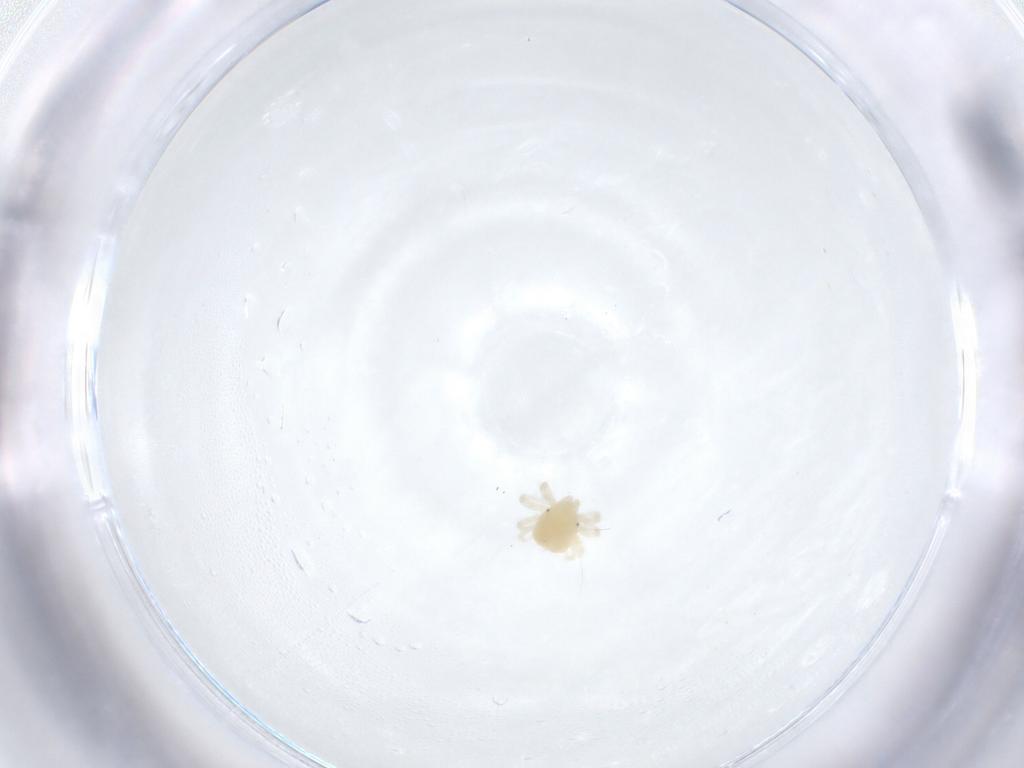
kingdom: Animalia
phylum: Arthropoda
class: Arachnida
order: Trombidiformes
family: Anystidae
